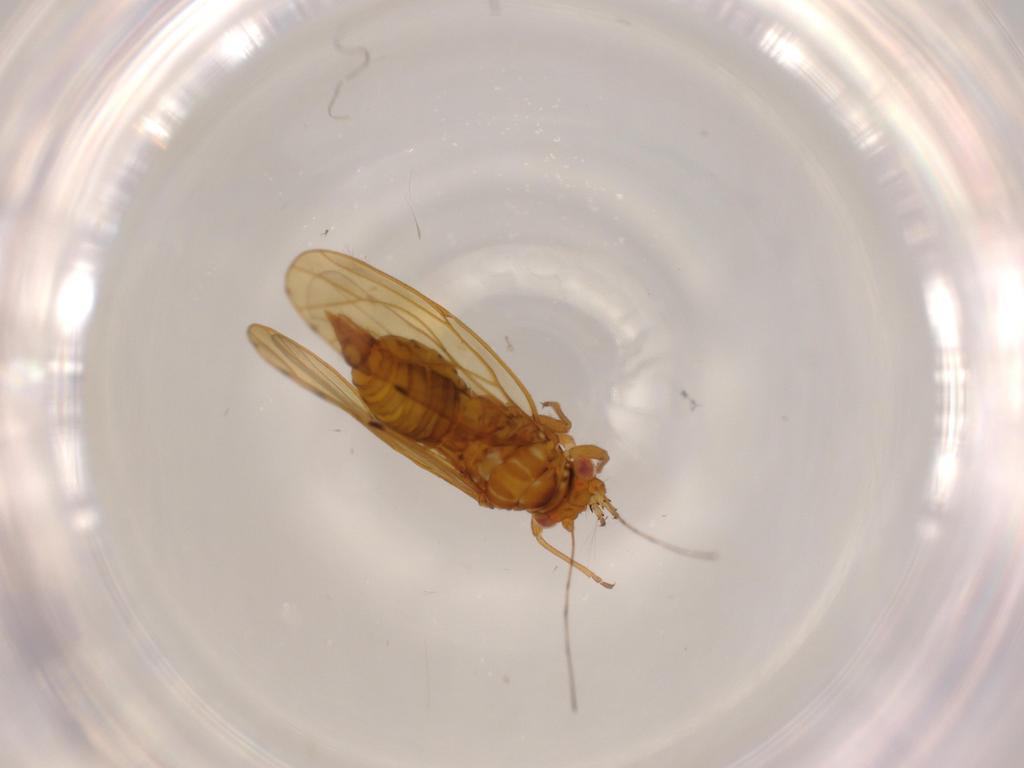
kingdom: Animalia
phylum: Arthropoda
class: Insecta
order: Hemiptera
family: Psylloidea_incertae_sedis
